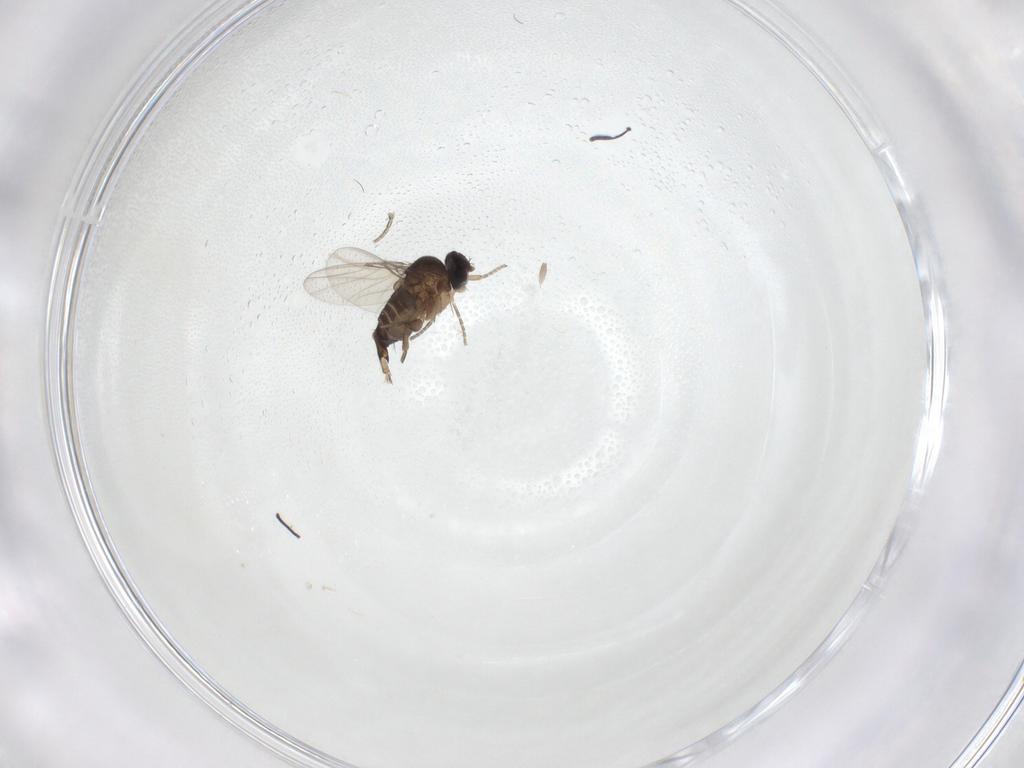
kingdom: Animalia
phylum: Arthropoda
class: Insecta
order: Diptera
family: Phoridae
